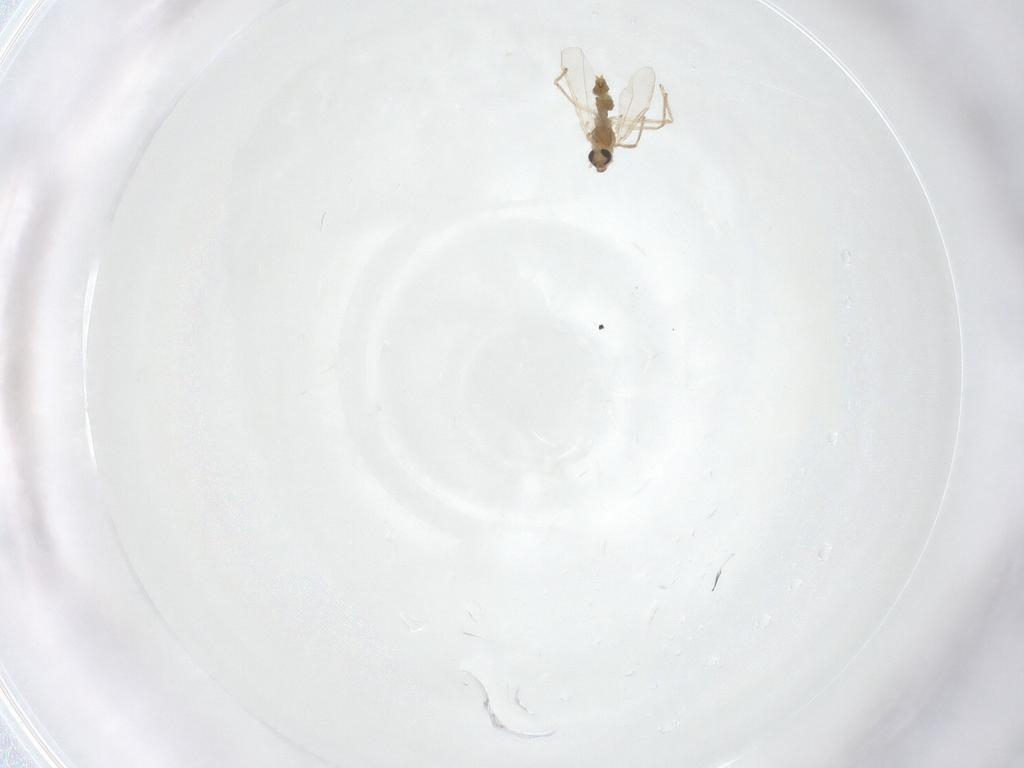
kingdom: Animalia
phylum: Arthropoda
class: Insecta
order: Diptera
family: Chironomidae
